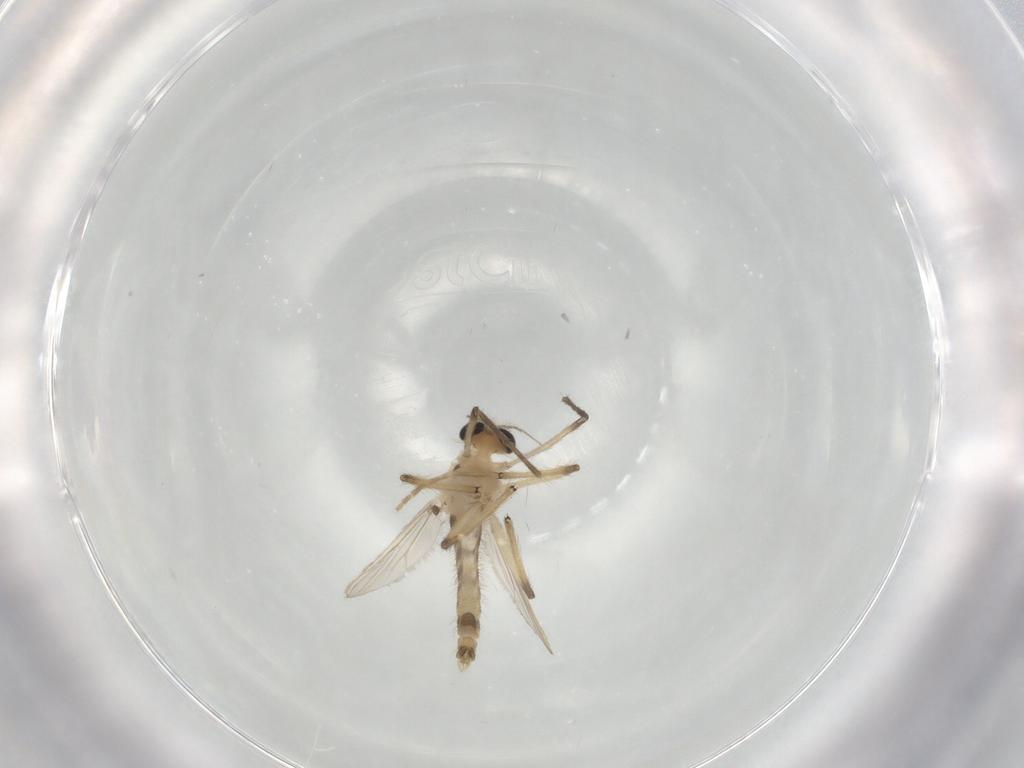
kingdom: Animalia
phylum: Arthropoda
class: Insecta
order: Diptera
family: Chironomidae
